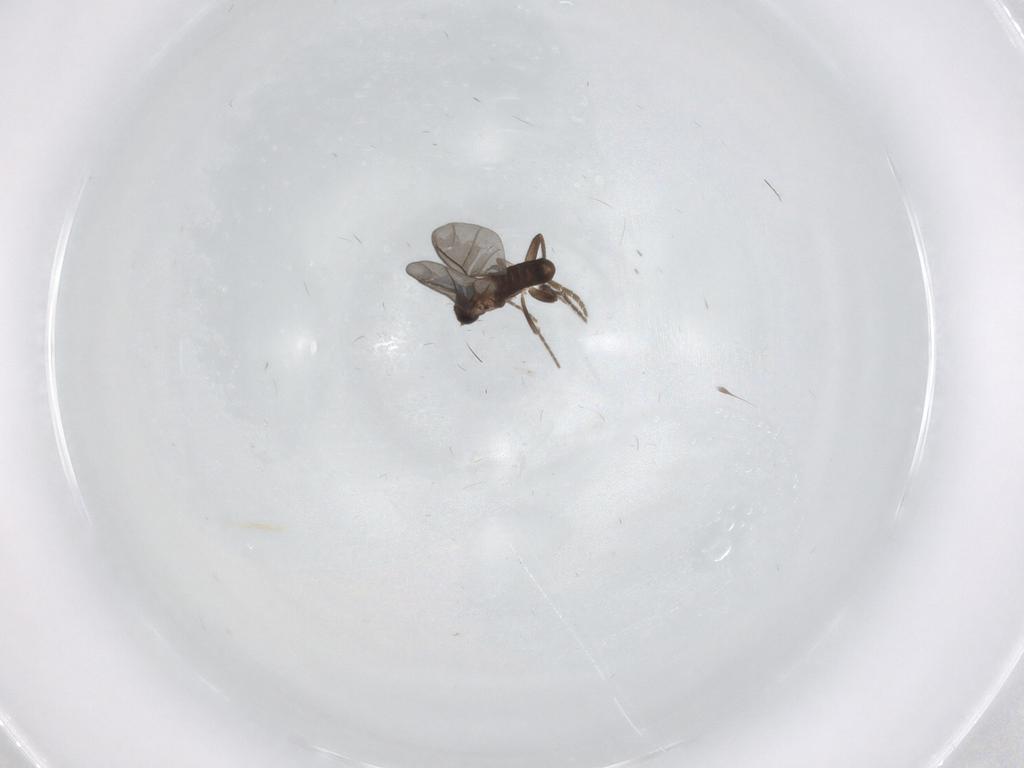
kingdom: Animalia
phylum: Arthropoda
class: Insecta
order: Diptera
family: Phoridae
